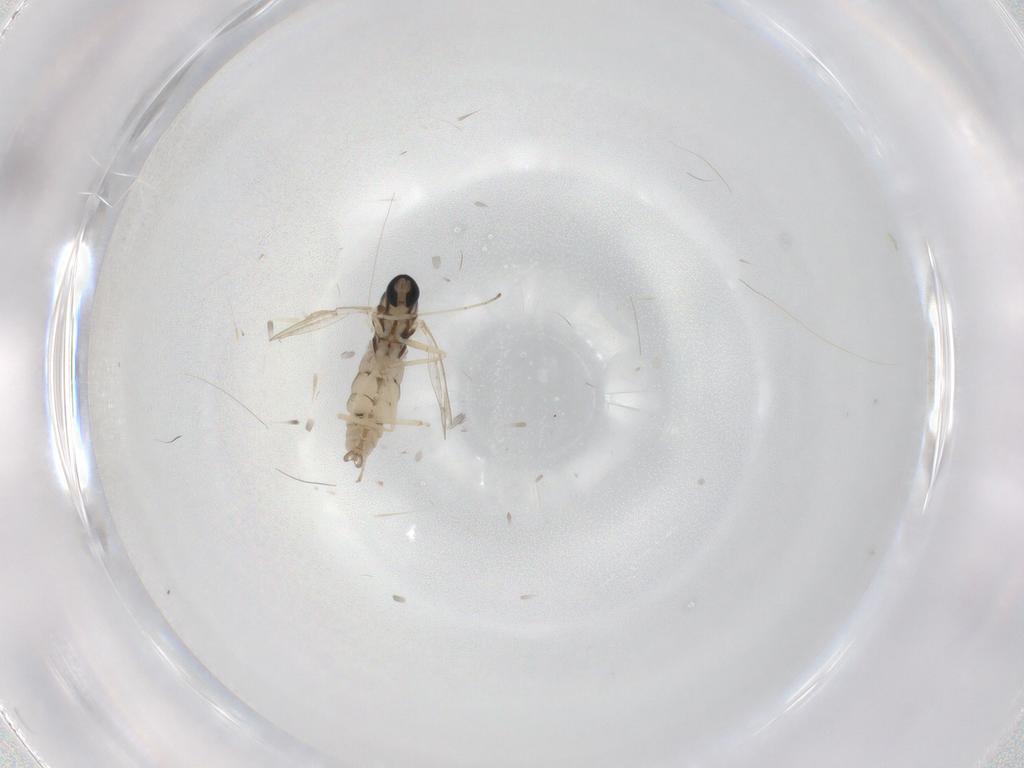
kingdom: Animalia
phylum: Arthropoda
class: Insecta
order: Diptera
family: Cecidomyiidae
